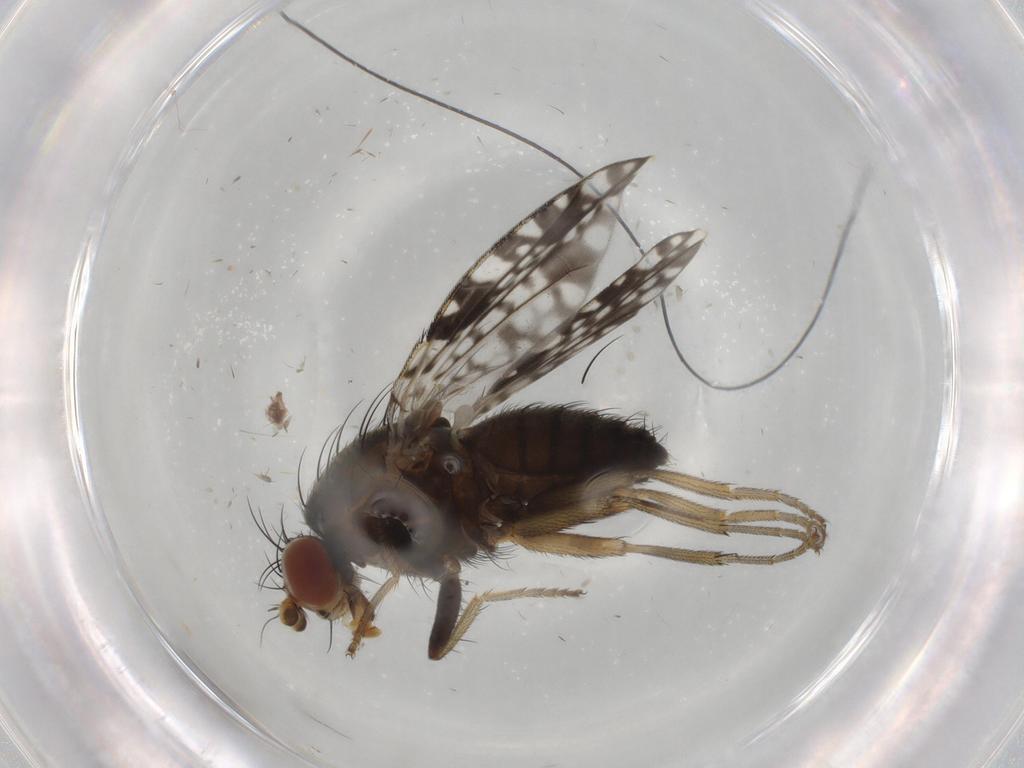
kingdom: Animalia
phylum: Arthropoda
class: Insecta
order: Diptera
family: Tephritidae
